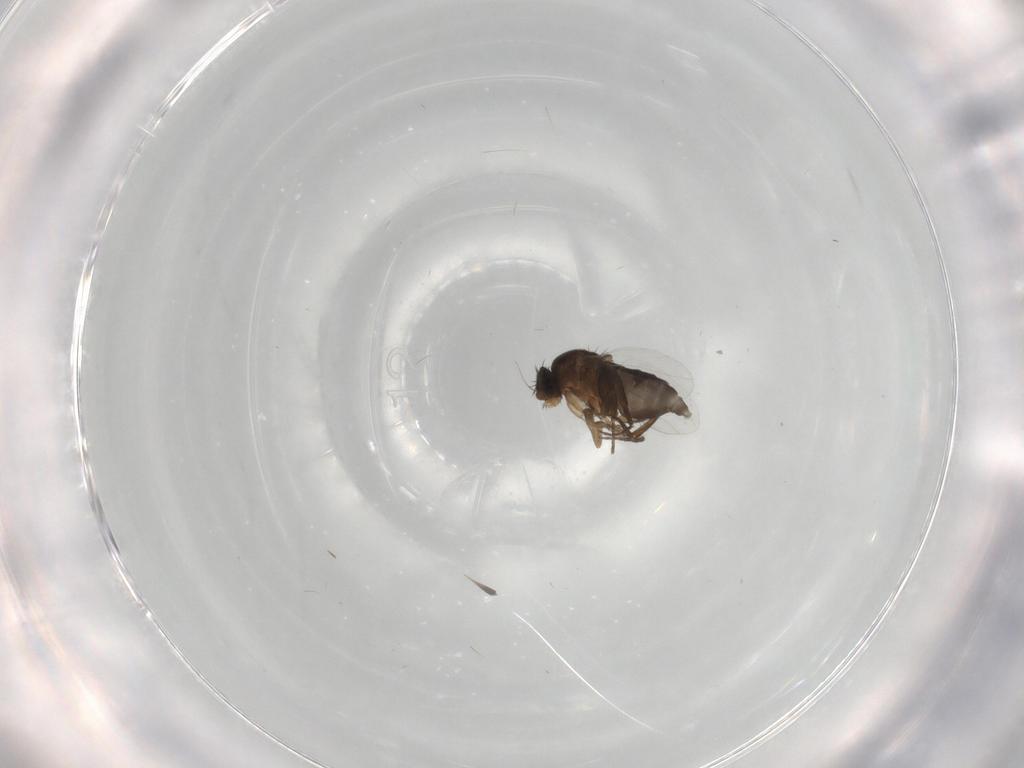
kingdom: Animalia
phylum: Arthropoda
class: Insecta
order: Diptera
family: Phoridae
